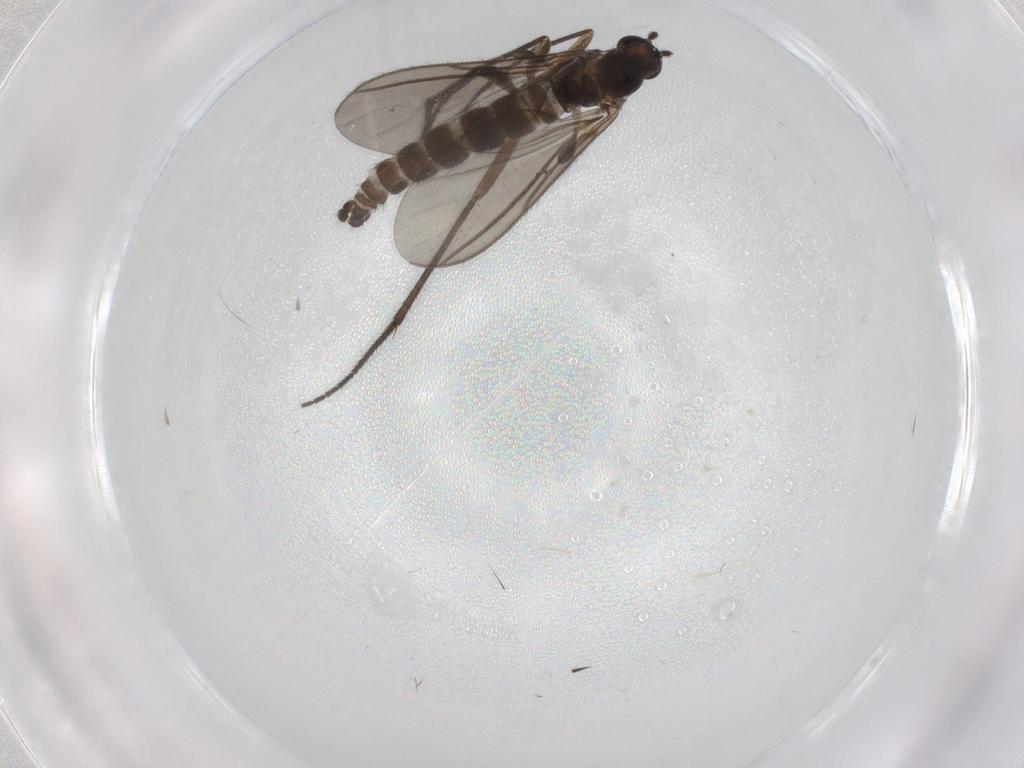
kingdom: Animalia
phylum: Arthropoda
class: Insecta
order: Diptera
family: Sciaridae
